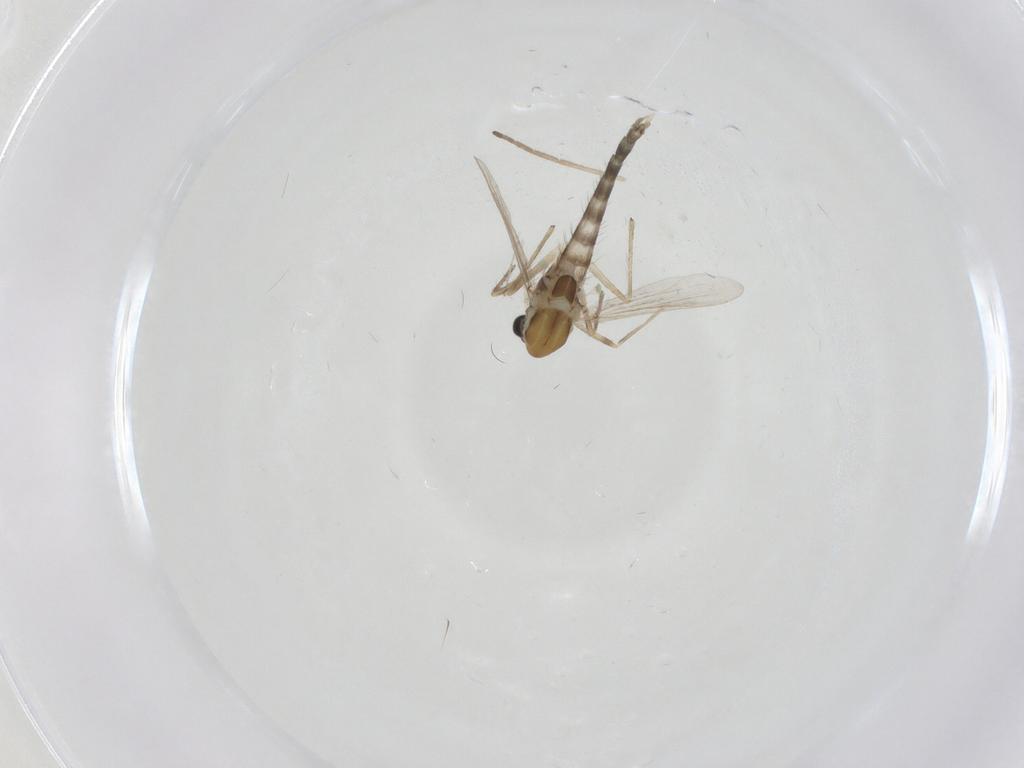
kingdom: Animalia
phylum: Arthropoda
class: Insecta
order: Diptera
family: Chironomidae
